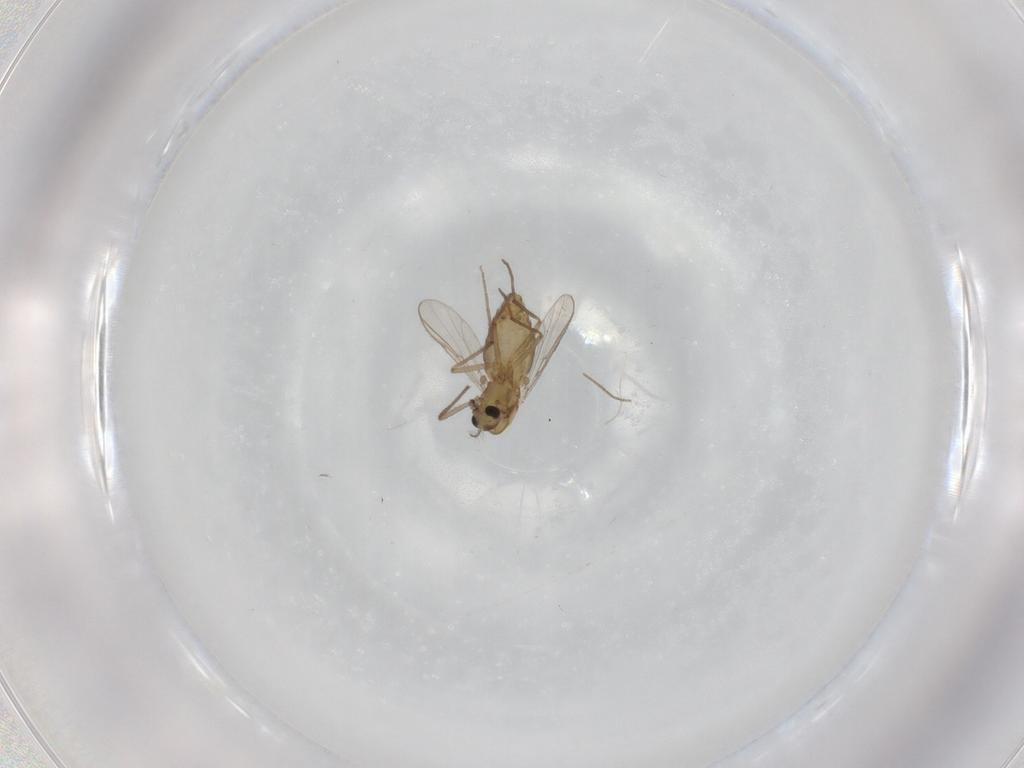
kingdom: Animalia
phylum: Arthropoda
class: Insecta
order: Diptera
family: Chironomidae
